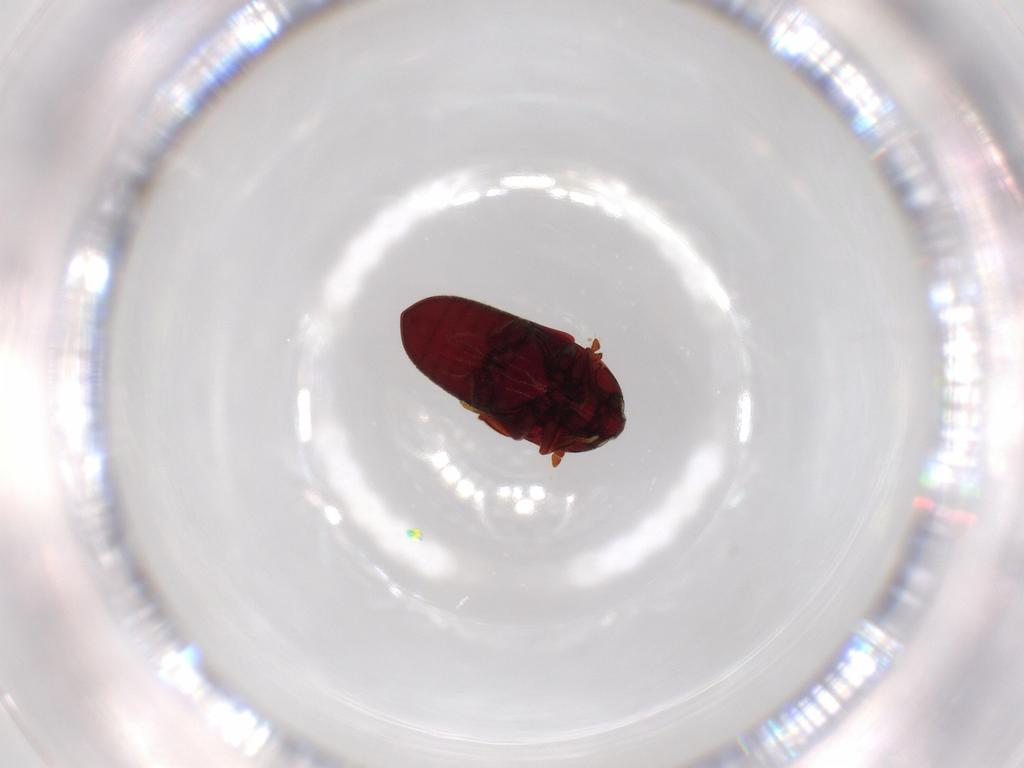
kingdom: Animalia
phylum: Arthropoda
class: Insecta
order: Coleoptera
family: Throscidae
